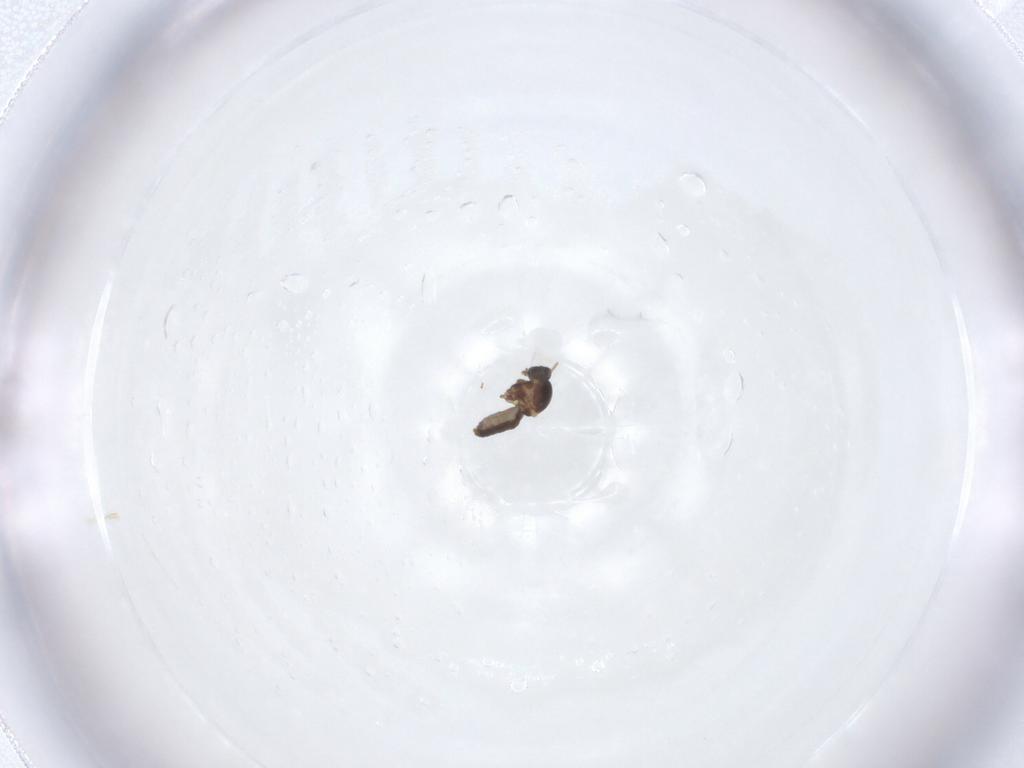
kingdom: Animalia
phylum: Arthropoda
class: Insecta
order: Diptera
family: Ceratopogonidae
